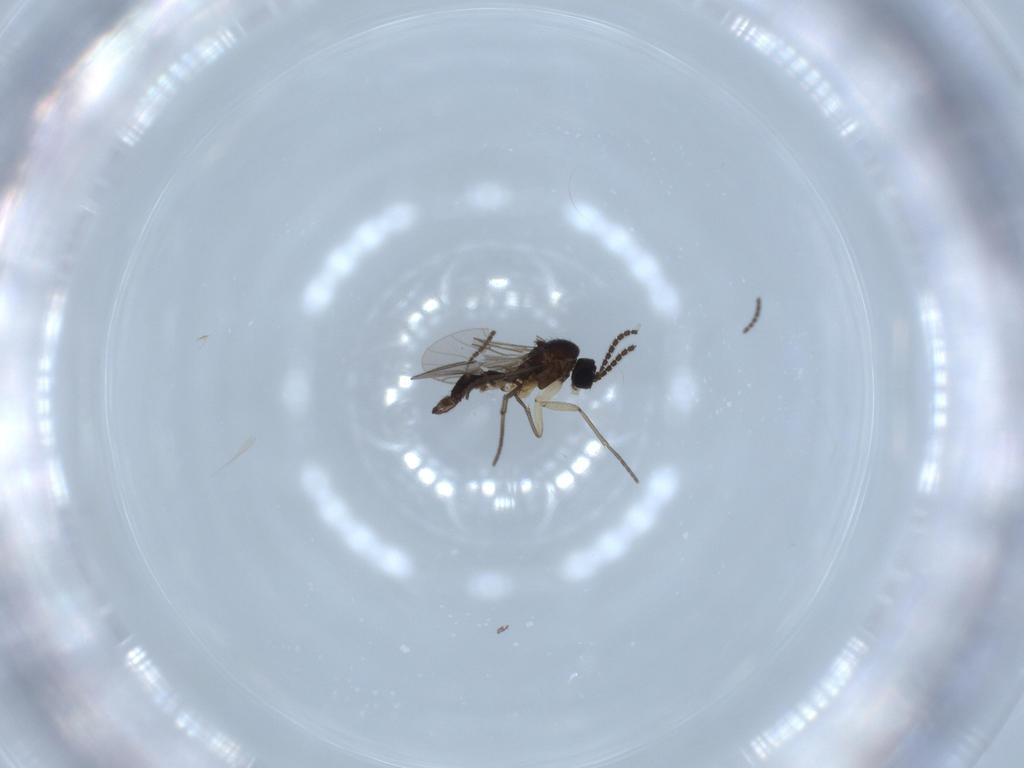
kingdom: Animalia
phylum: Arthropoda
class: Insecta
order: Diptera
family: Sciaridae
